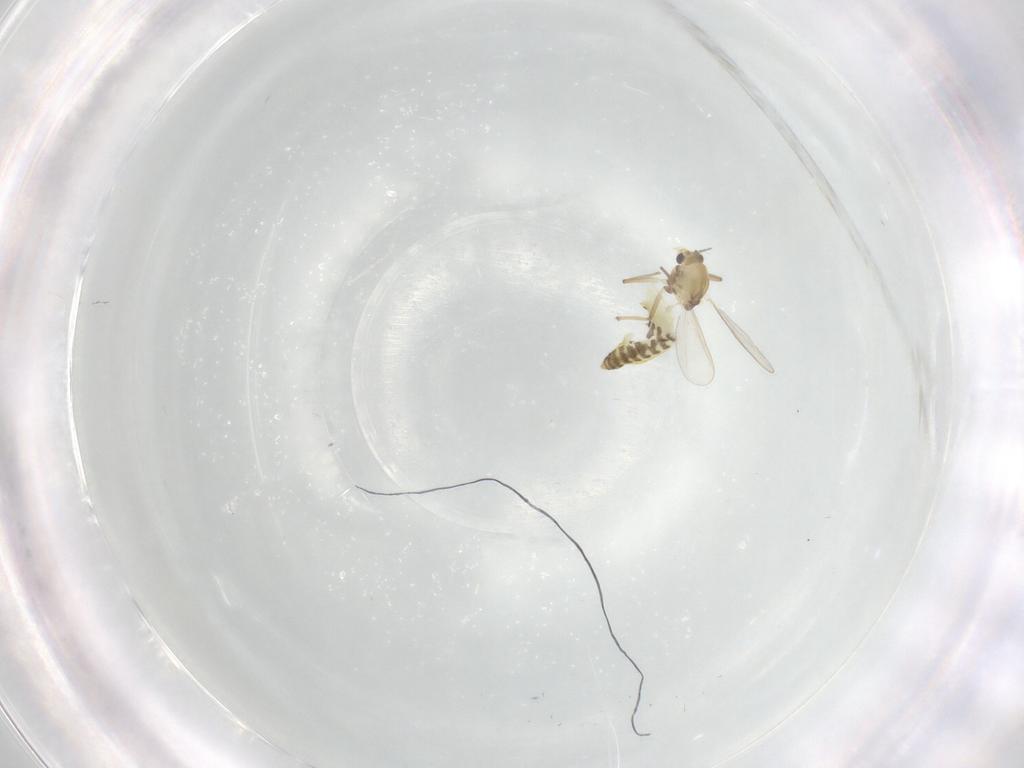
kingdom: Animalia
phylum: Arthropoda
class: Insecta
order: Diptera
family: Chironomidae
